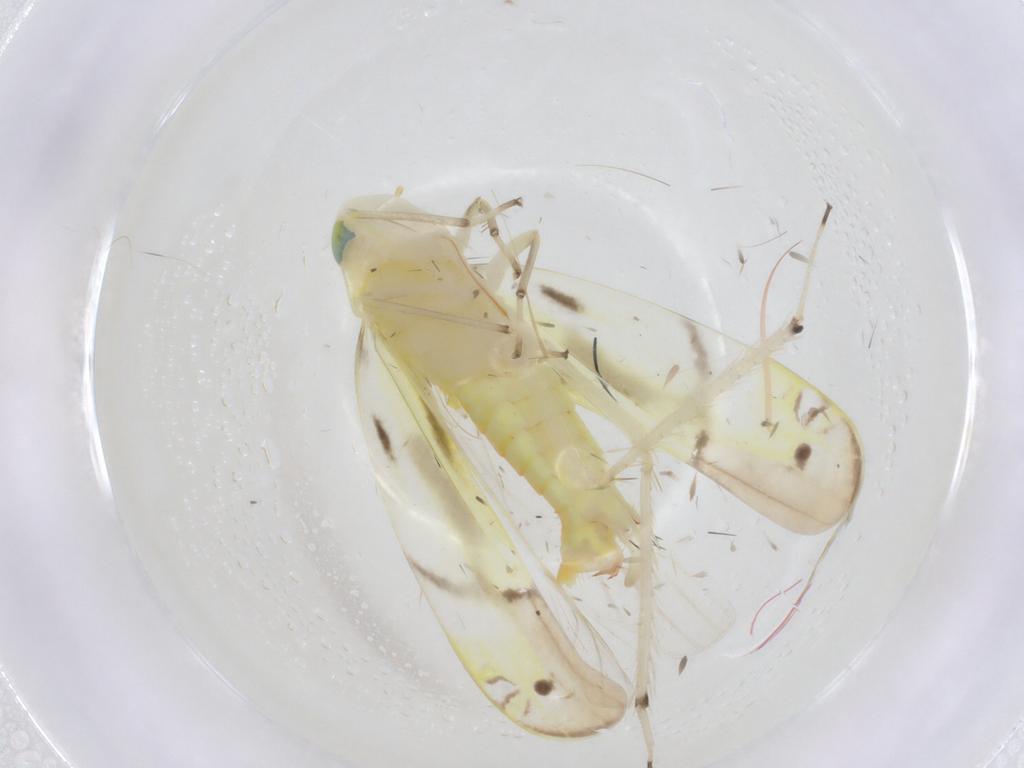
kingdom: Animalia
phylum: Arthropoda
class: Insecta
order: Hemiptera
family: Cicadellidae
